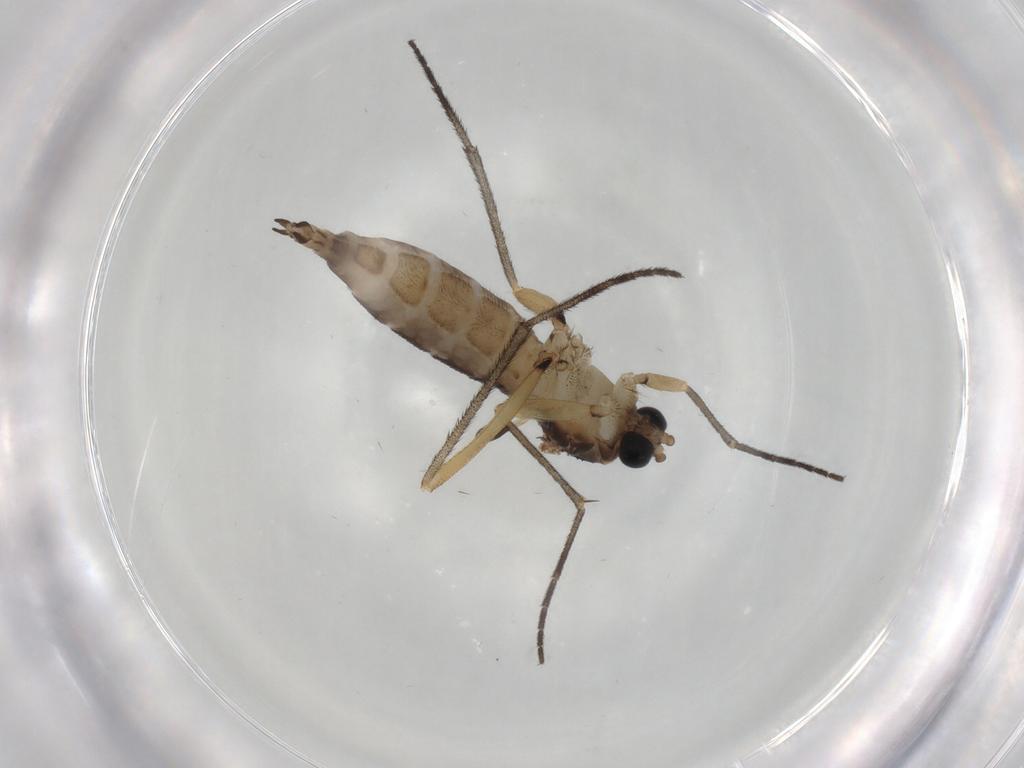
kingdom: Animalia
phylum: Arthropoda
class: Insecta
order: Diptera
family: Sciaridae
